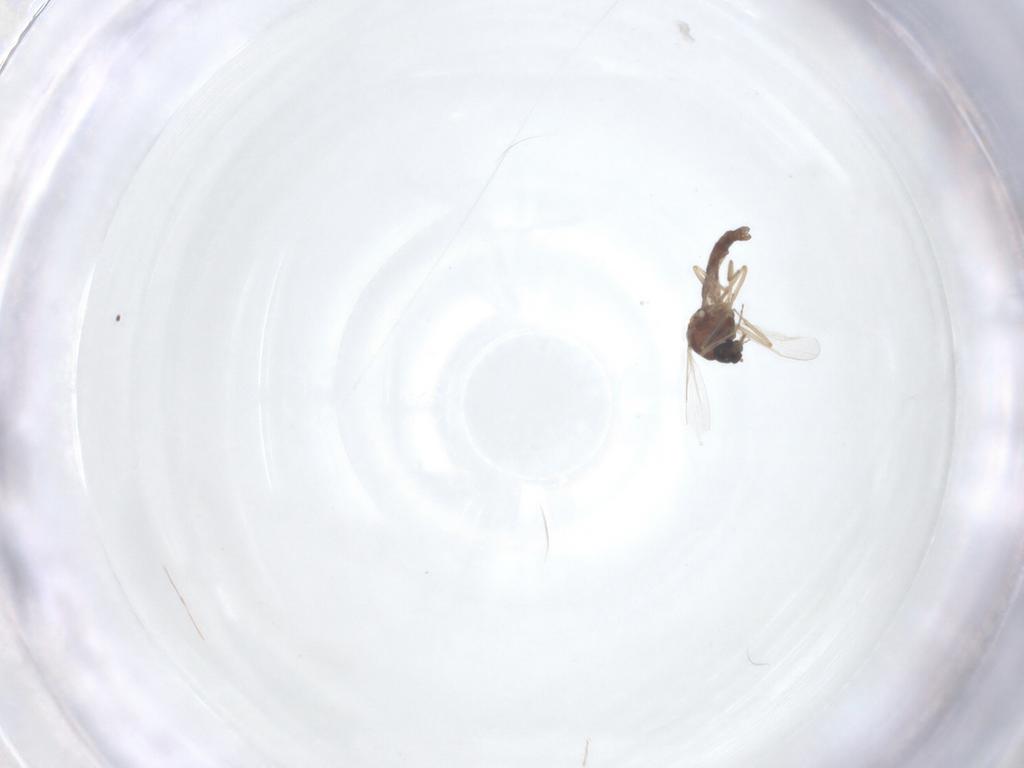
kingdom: Animalia
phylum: Arthropoda
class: Insecta
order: Diptera
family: Ceratopogonidae
